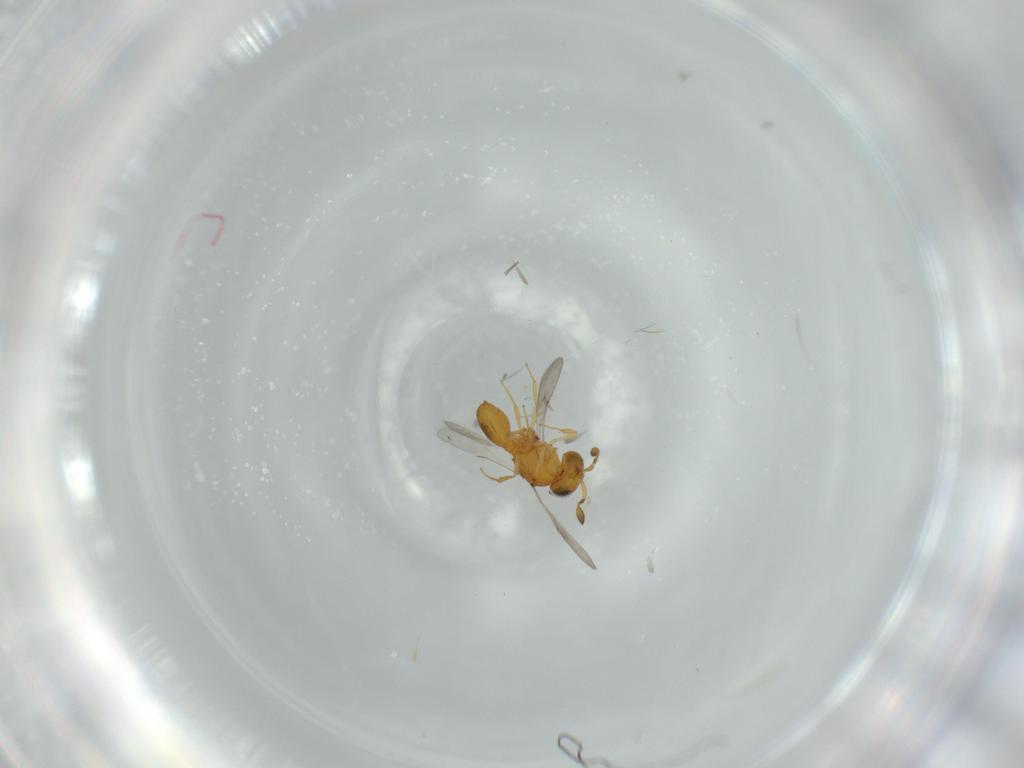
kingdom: Animalia
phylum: Arthropoda
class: Insecta
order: Hymenoptera
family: Scelionidae
